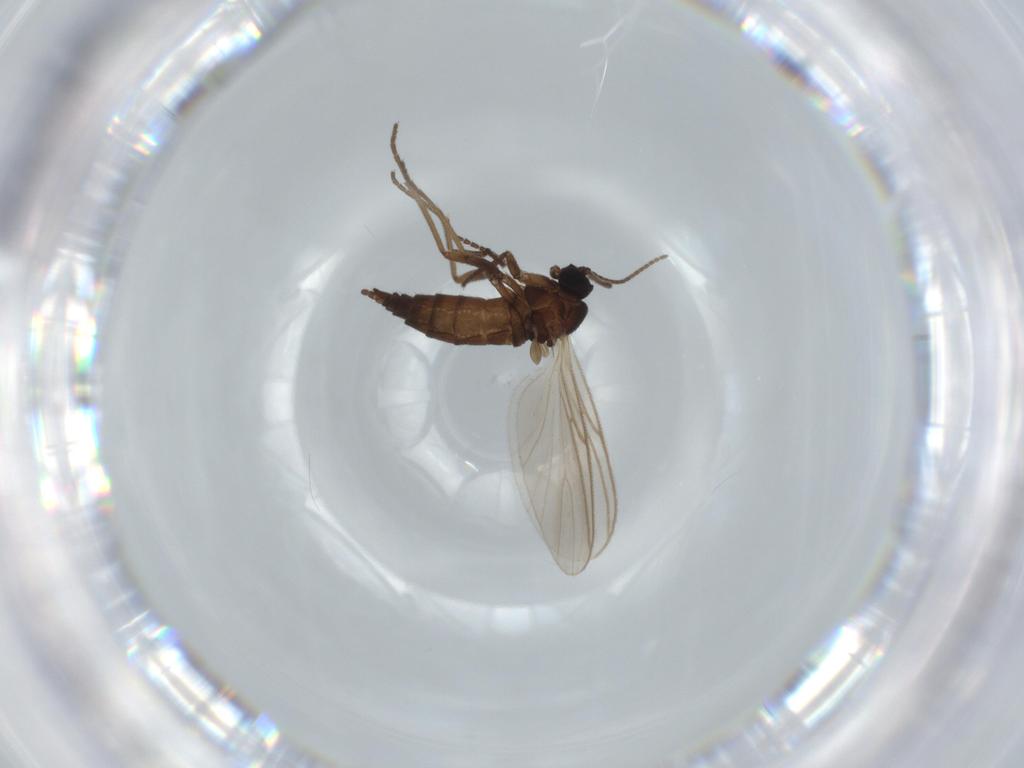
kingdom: Animalia
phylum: Arthropoda
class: Insecta
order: Diptera
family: Sciaridae
